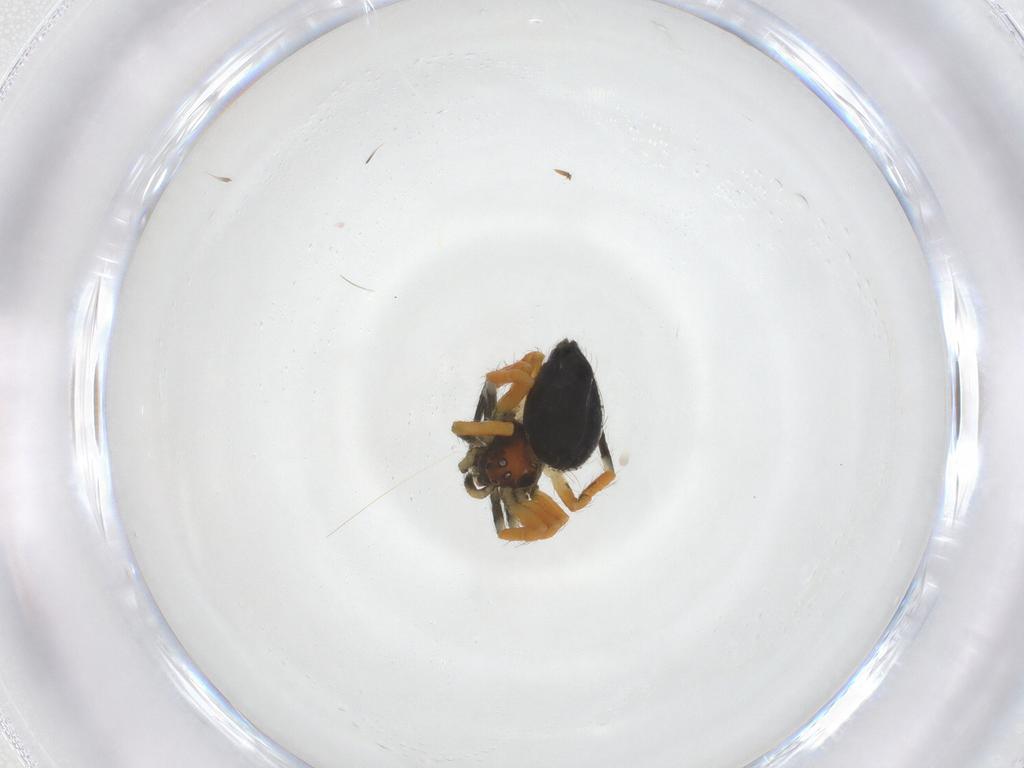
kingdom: Animalia
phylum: Arthropoda
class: Arachnida
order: Araneae
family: Theridiidae
